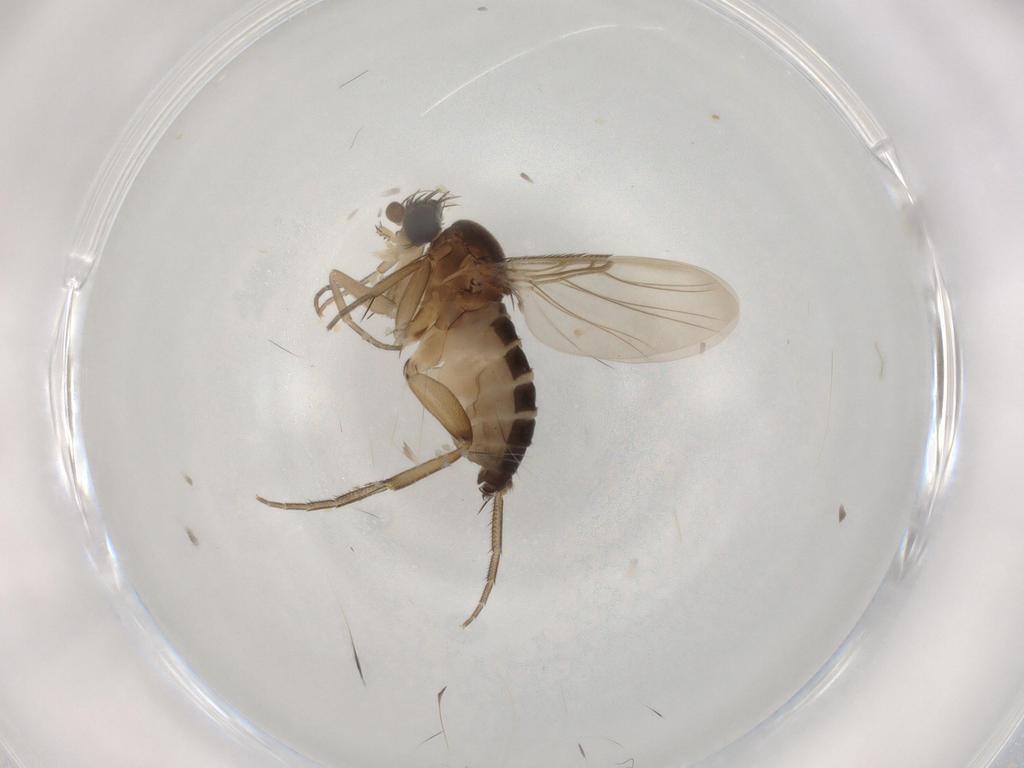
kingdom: Animalia
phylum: Arthropoda
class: Insecta
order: Diptera
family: Phoridae
